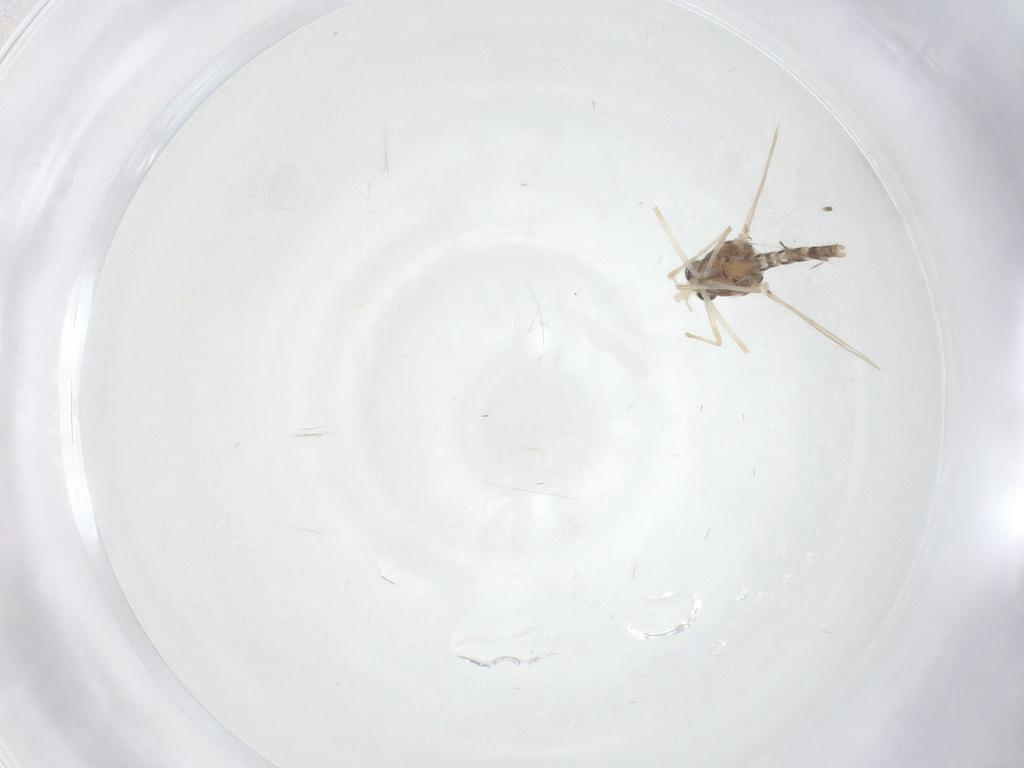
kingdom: Animalia
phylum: Arthropoda
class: Insecta
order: Diptera
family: Chironomidae
